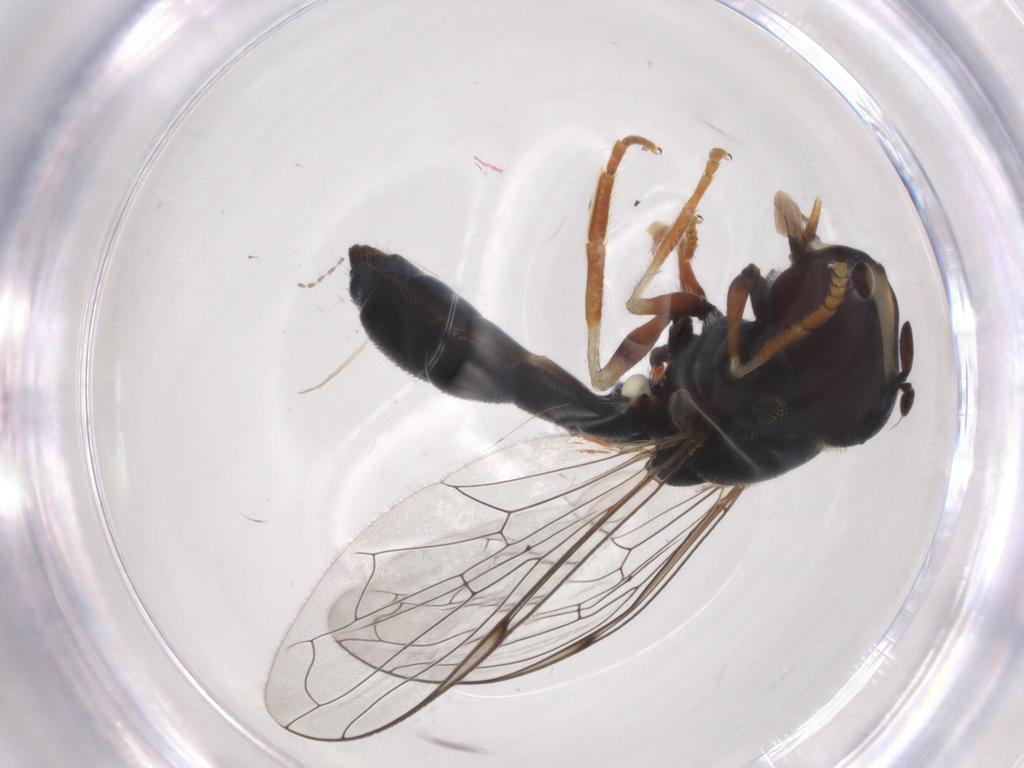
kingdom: Animalia
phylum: Arthropoda
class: Insecta
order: Diptera
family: Syrphidae
